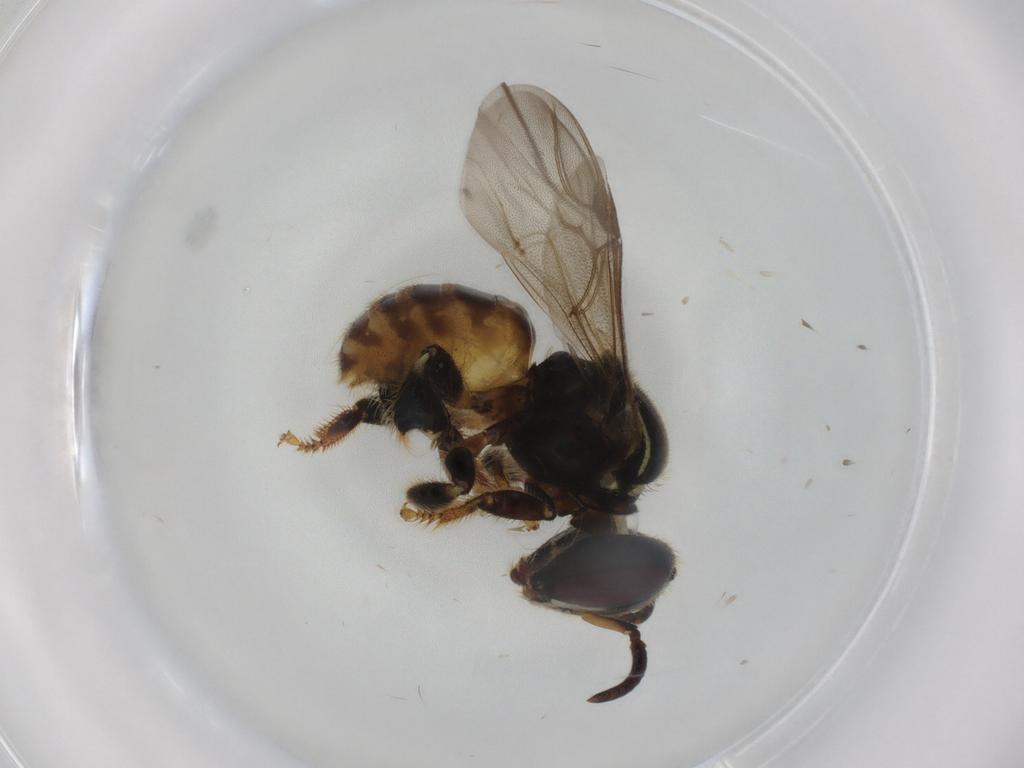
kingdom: Animalia
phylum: Arthropoda
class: Insecta
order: Hymenoptera
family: Apidae
